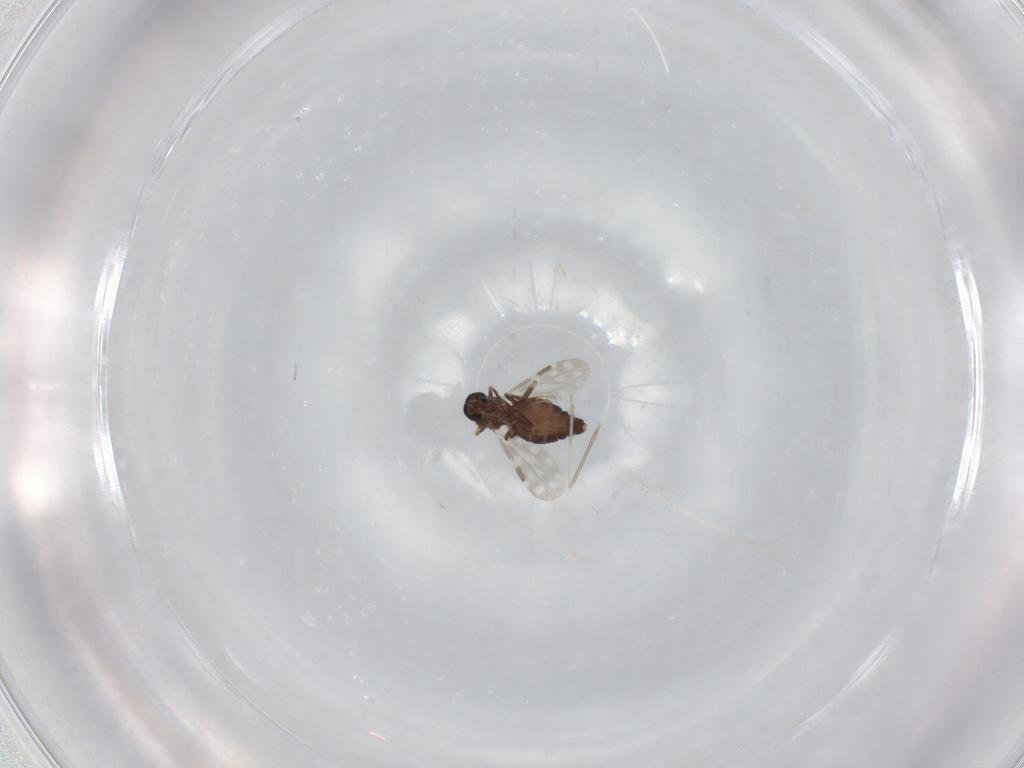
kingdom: Animalia
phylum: Arthropoda
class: Insecta
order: Diptera
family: Ceratopogonidae
